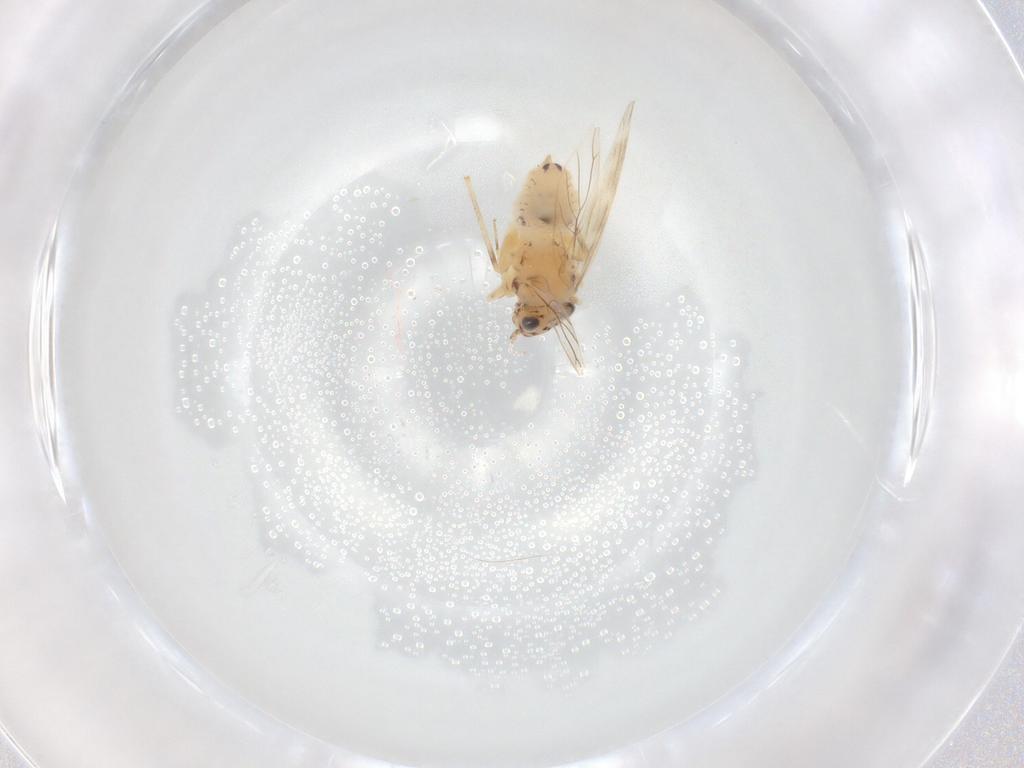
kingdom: Animalia
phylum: Arthropoda
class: Insecta
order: Psocodea
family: Lepidopsocidae
